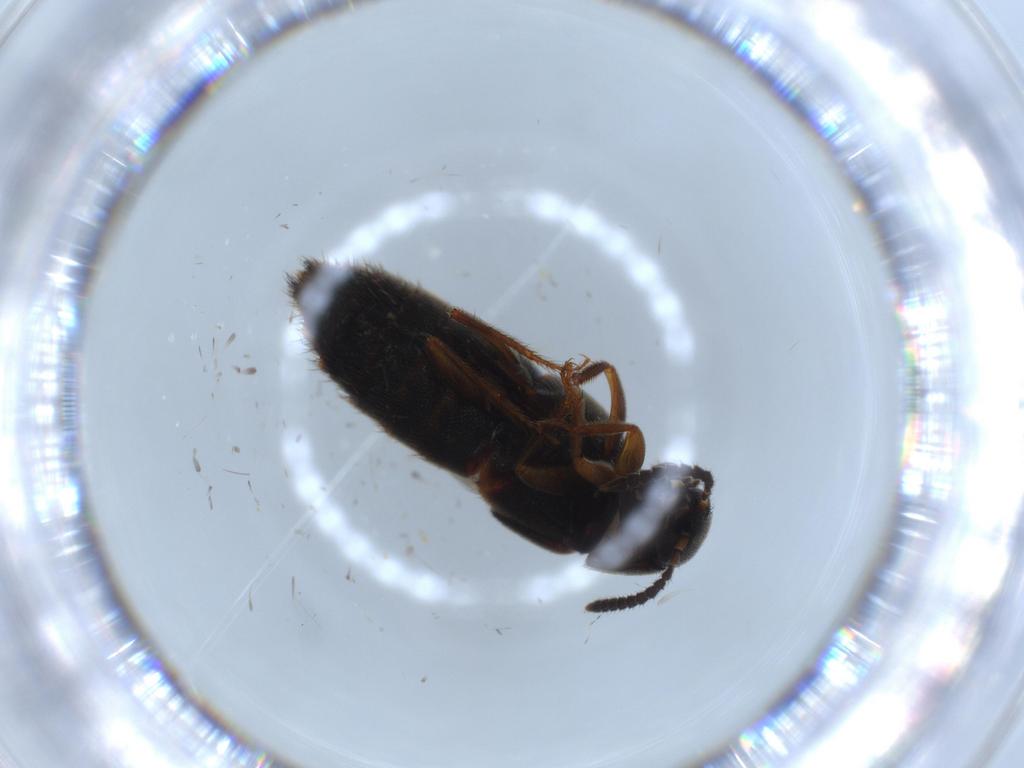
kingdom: Animalia
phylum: Arthropoda
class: Insecta
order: Coleoptera
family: Staphylinidae
